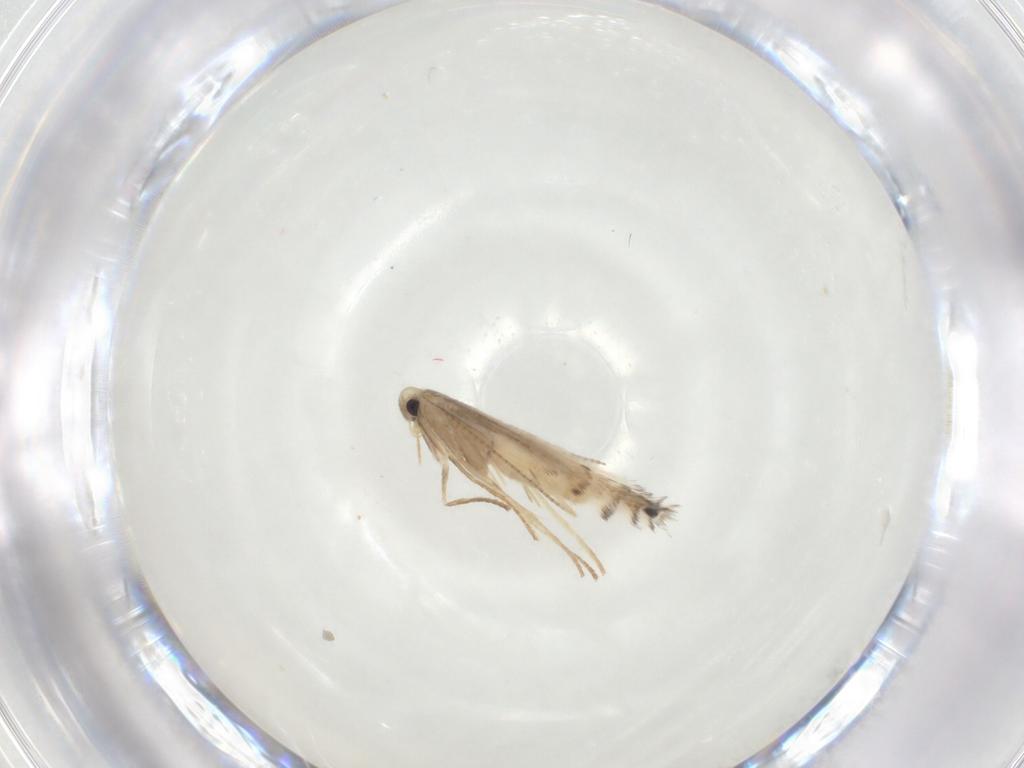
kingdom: Animalia
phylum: Arthropoda
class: Insecta
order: Lepidoptera
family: Gracillariidae
